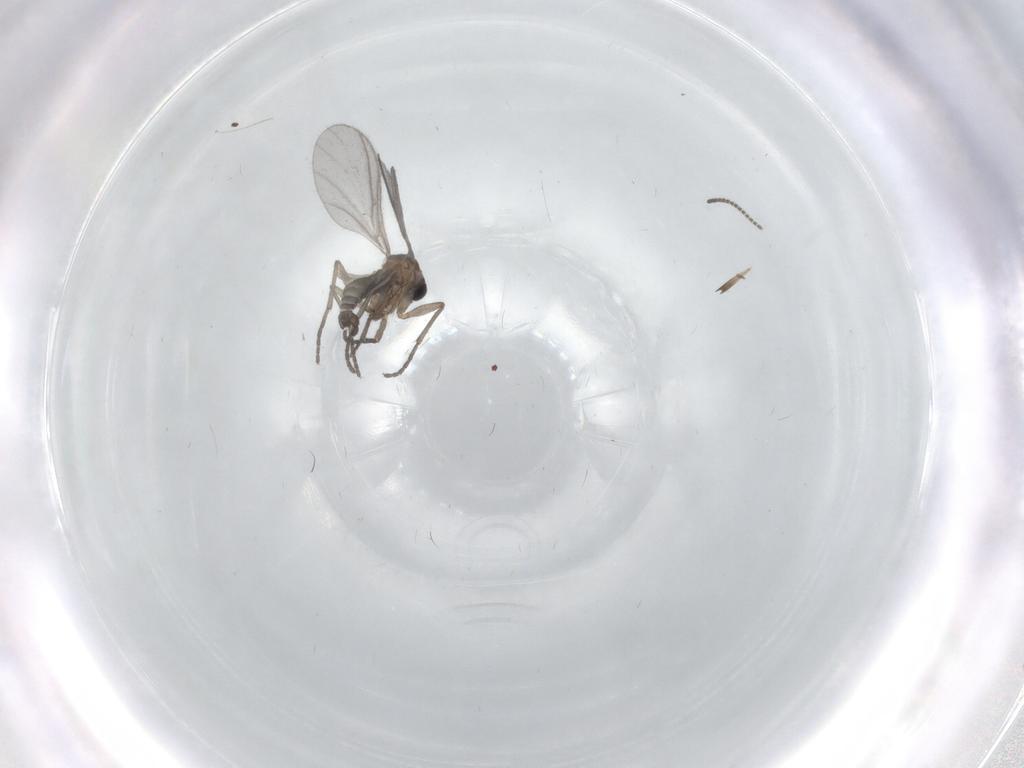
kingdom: Animalia
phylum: Arthropoda
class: Insecta
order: Diptera
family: Sciaridae
